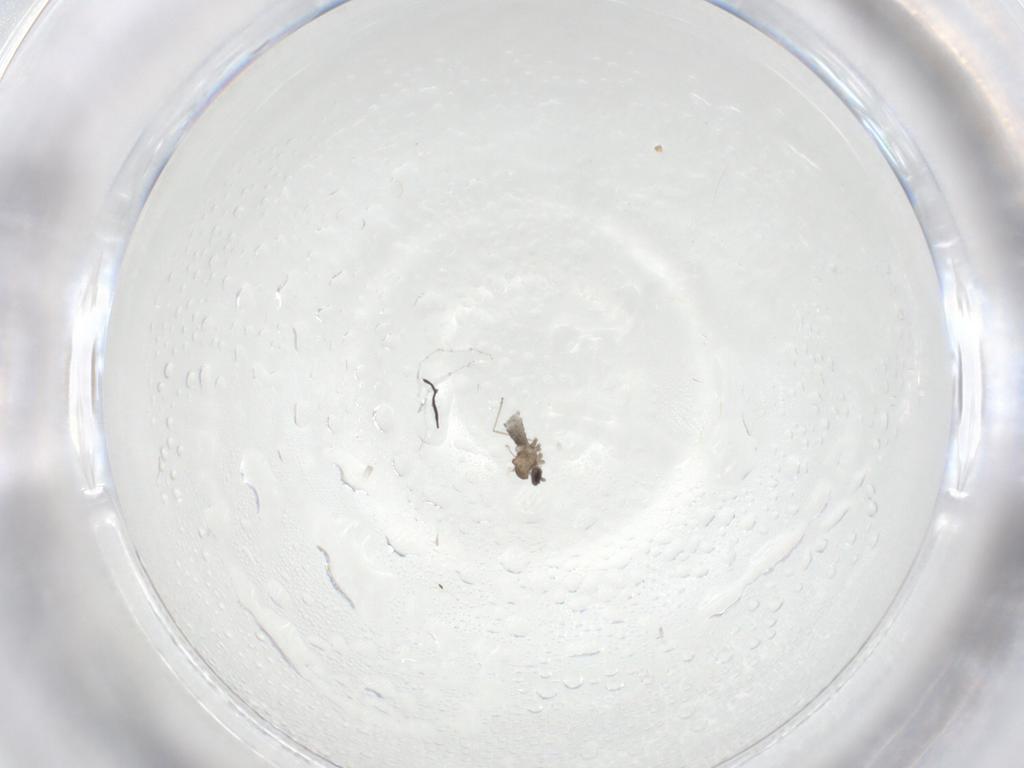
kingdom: Animalia
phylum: Arthropoda
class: Insecta
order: Diptera
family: Cecidomyiidae
